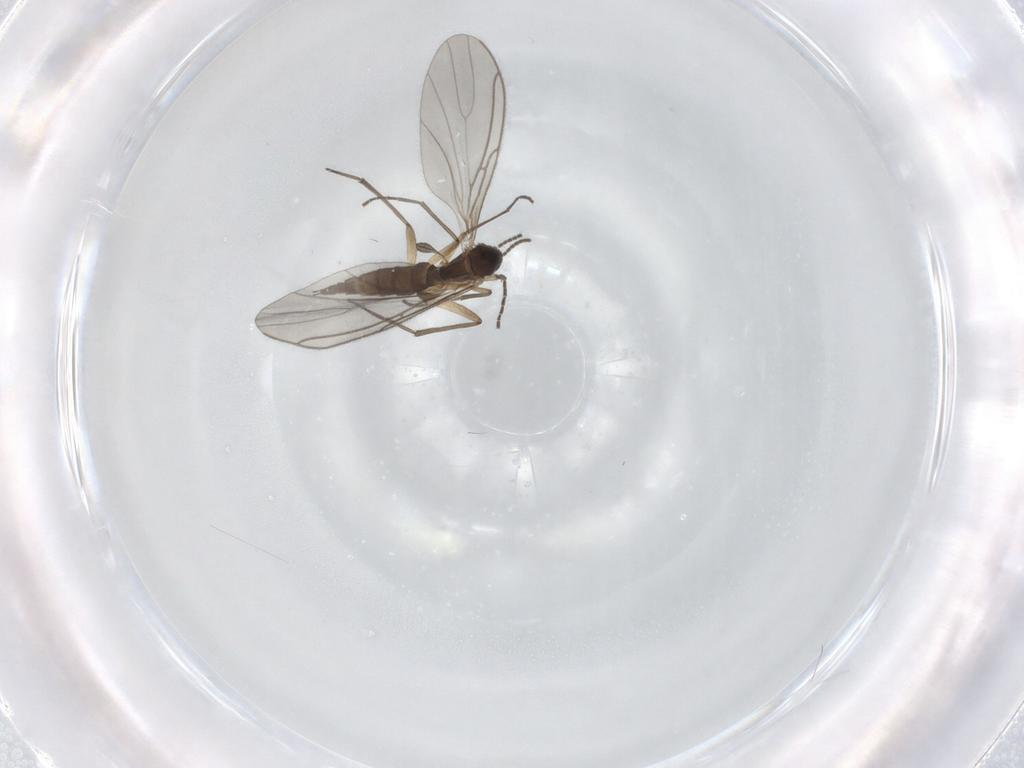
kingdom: Animalia
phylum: Arthropoda
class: Insecta
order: Diptera
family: Sciaridae
